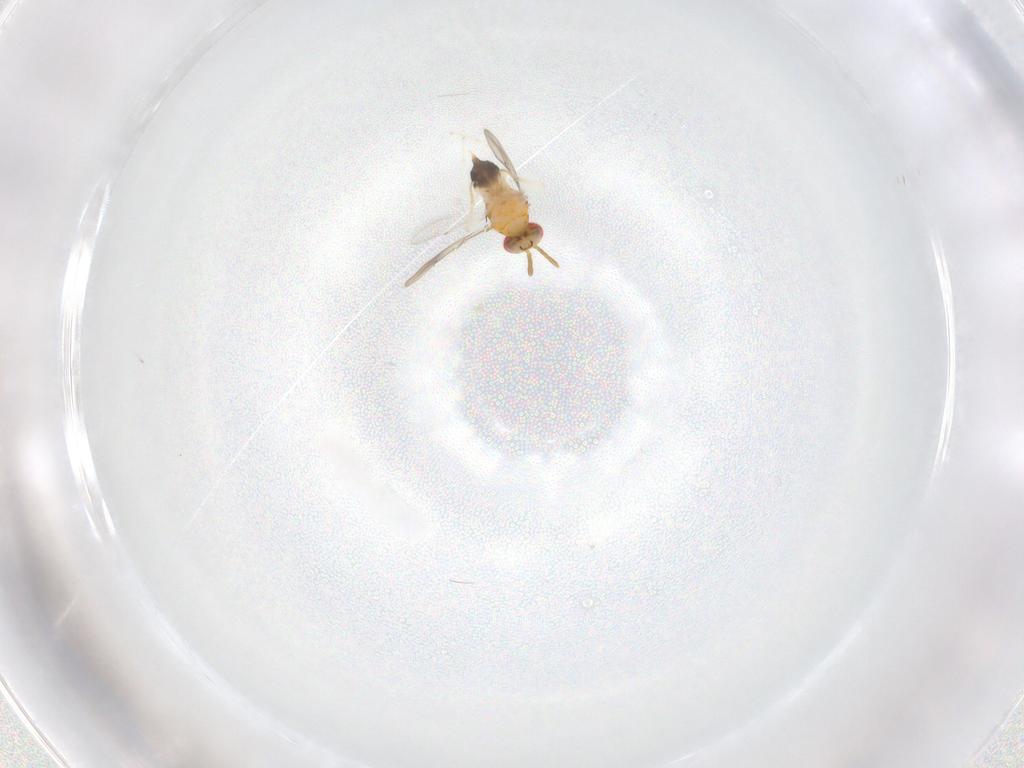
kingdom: Animalia
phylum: Arthropoda
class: Insecta
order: Hymenoptera
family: Aphelinidae
